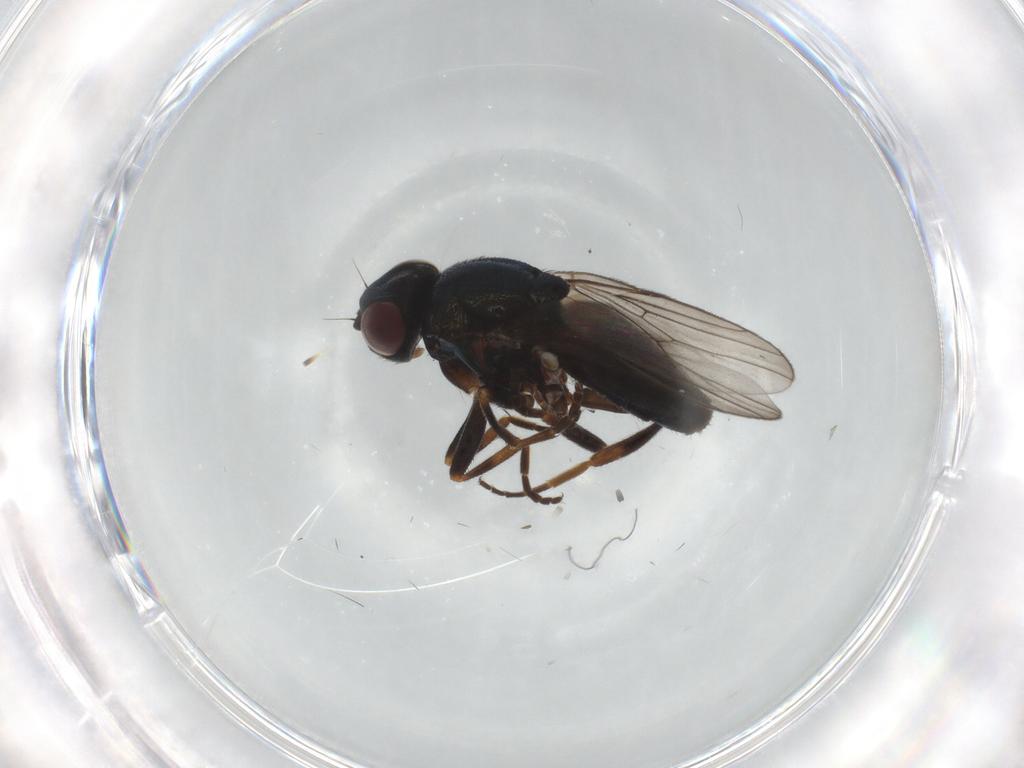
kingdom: Animalia
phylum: Arthropoda
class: Insecta
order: Diptera
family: Chloropidae
